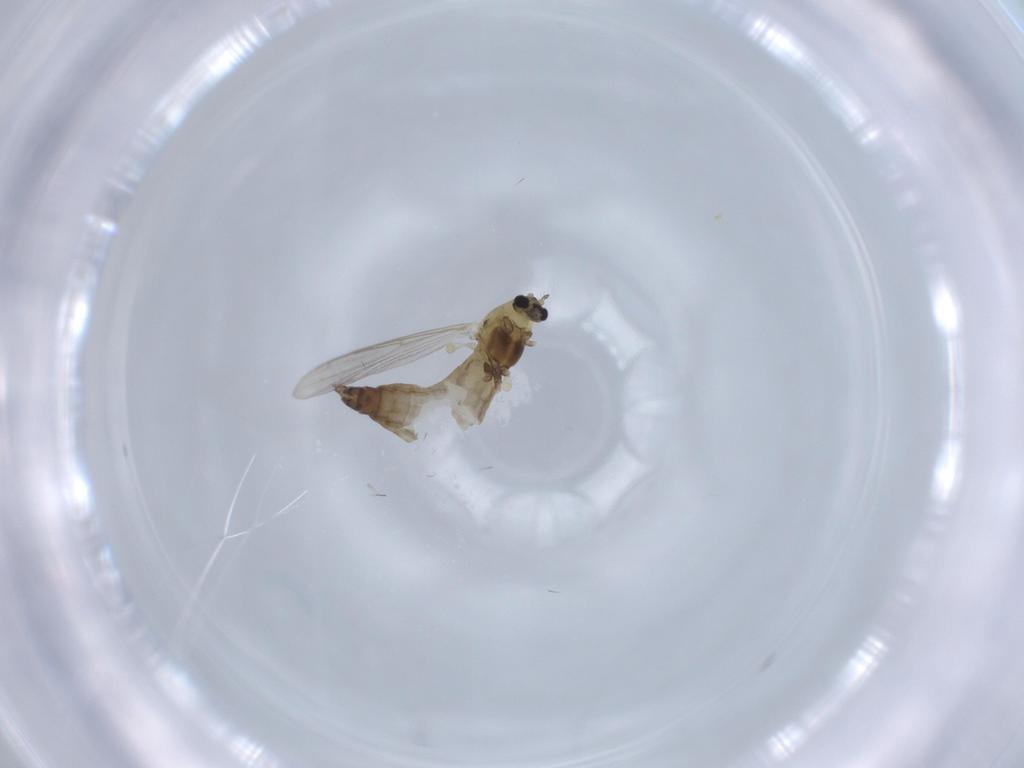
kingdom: Animalia
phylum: Arthropoda
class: Insecta
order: Diptera
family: Chironomidae
